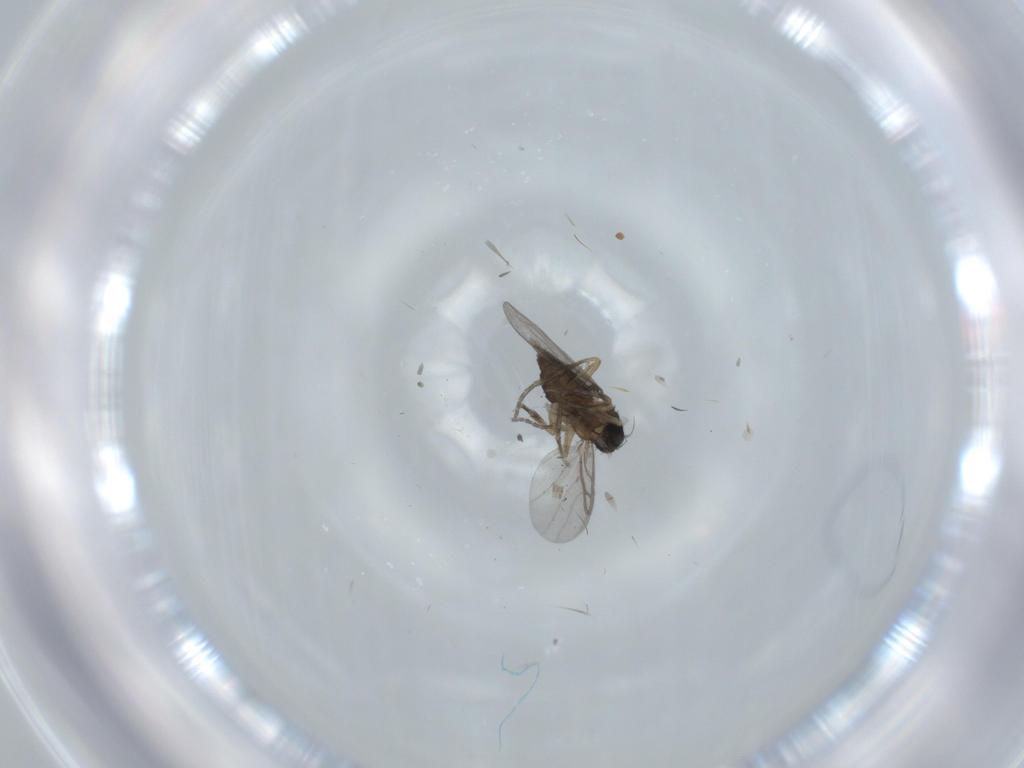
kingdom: Animalia
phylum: Arthropoda
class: Insecta
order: Diptera
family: Phoridae
